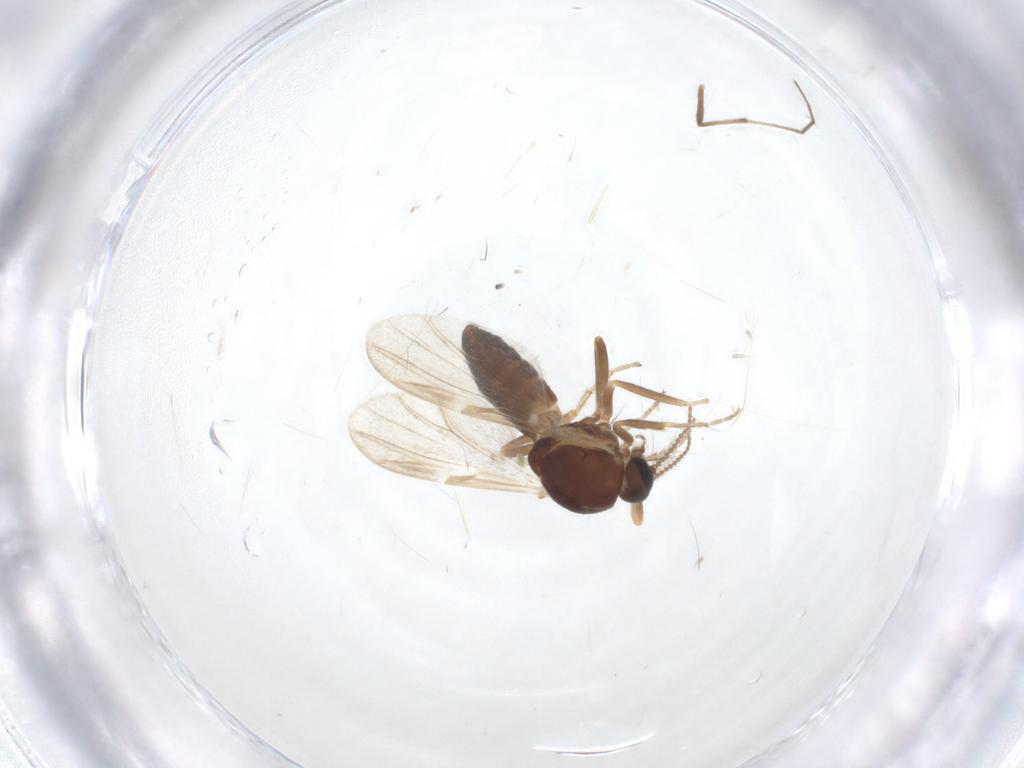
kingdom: Animalia
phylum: Arthropoda
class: Insecta
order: Diptera
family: Ceratopogonidae
